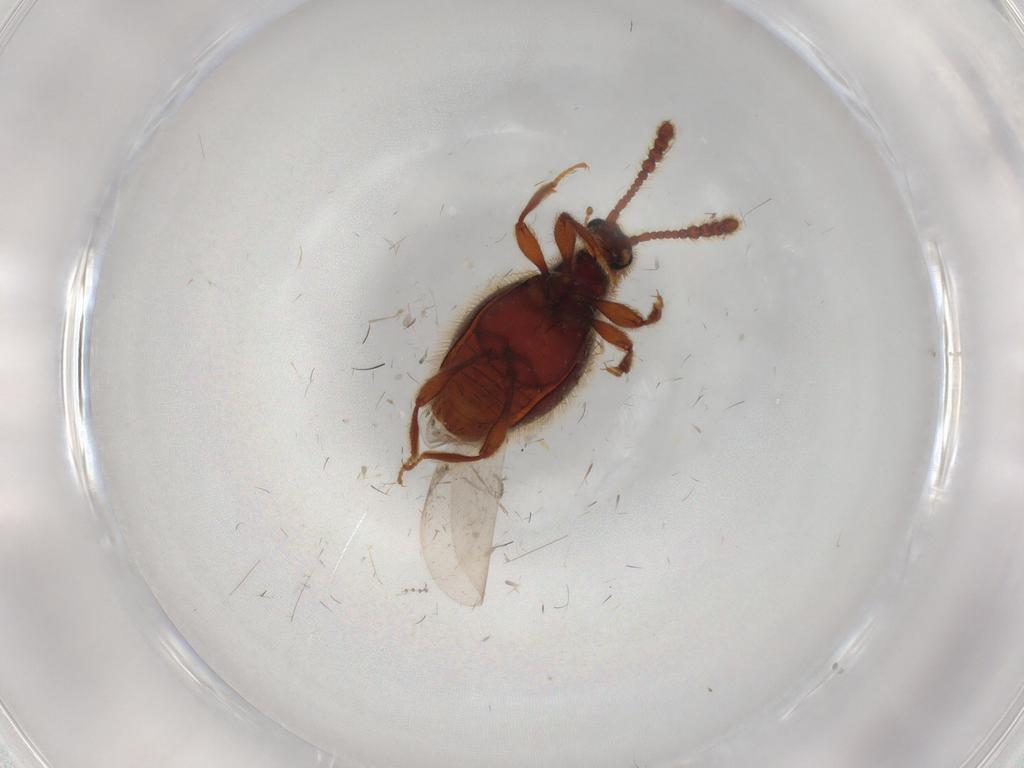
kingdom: Animalia
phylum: Arthropoda
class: Insecta
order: Coleoptera
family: Staphylinidae
